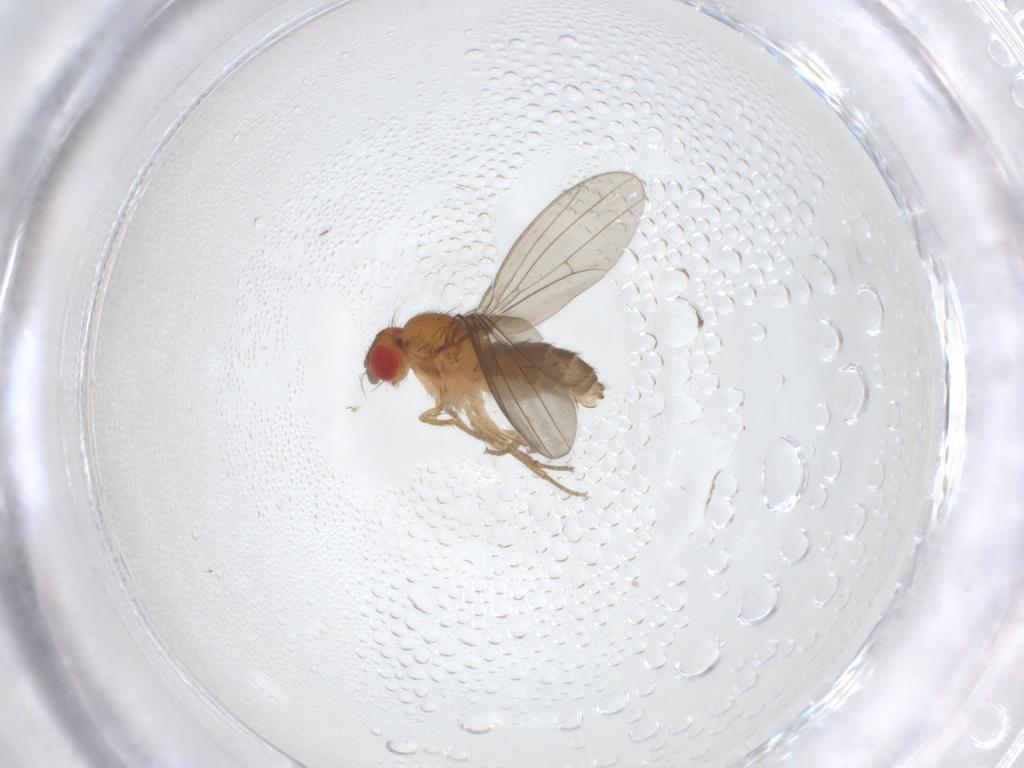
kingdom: Animalia
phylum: Arthropoda
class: Insecta
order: Diptera
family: Drosophilidae
